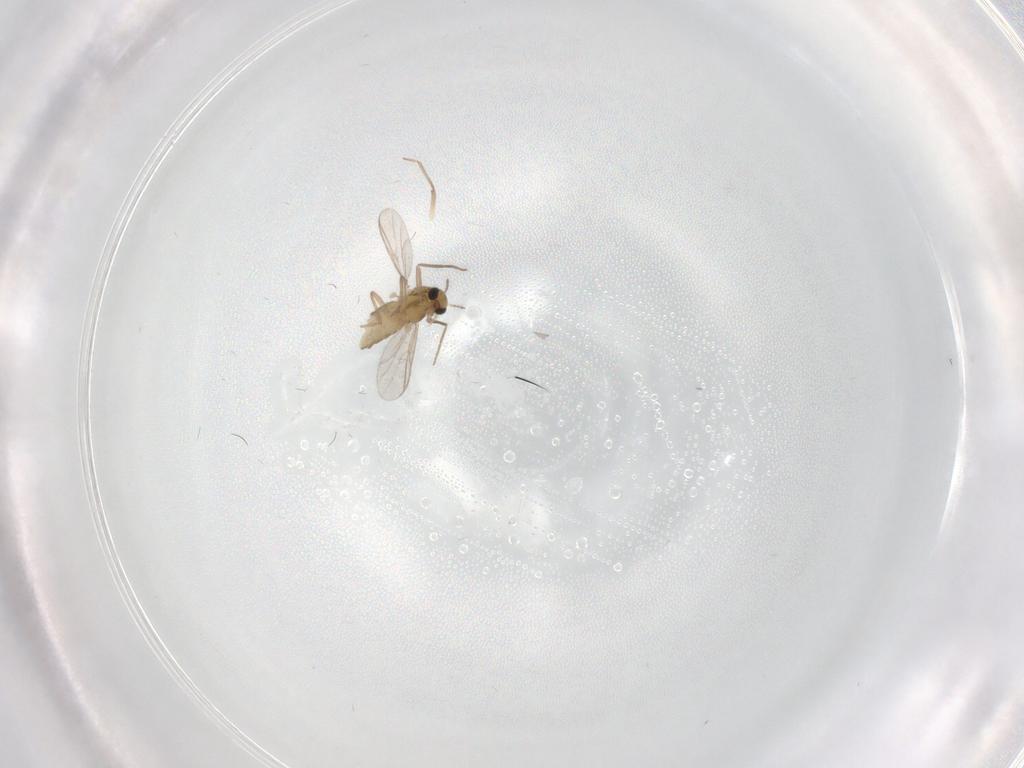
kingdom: Animalia
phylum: Arthropoda
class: Insecta
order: Diptera
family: Chironomidae
